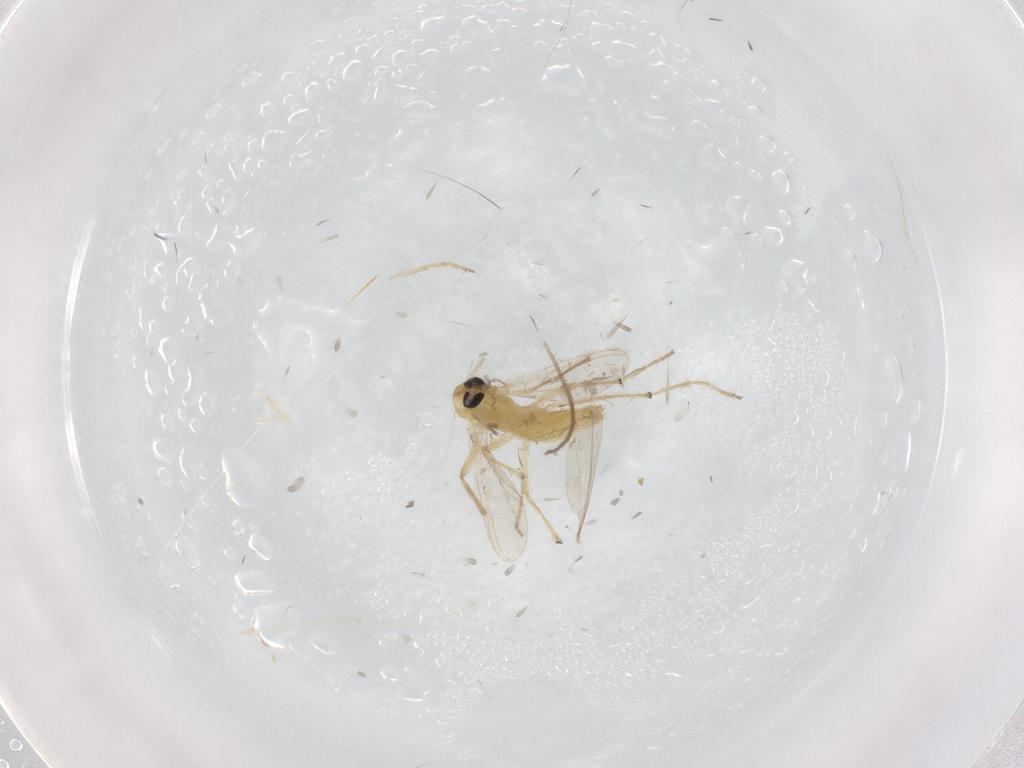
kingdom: Animalia
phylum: Arthropoda
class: Insecta
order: Diptera
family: Chironomidae
